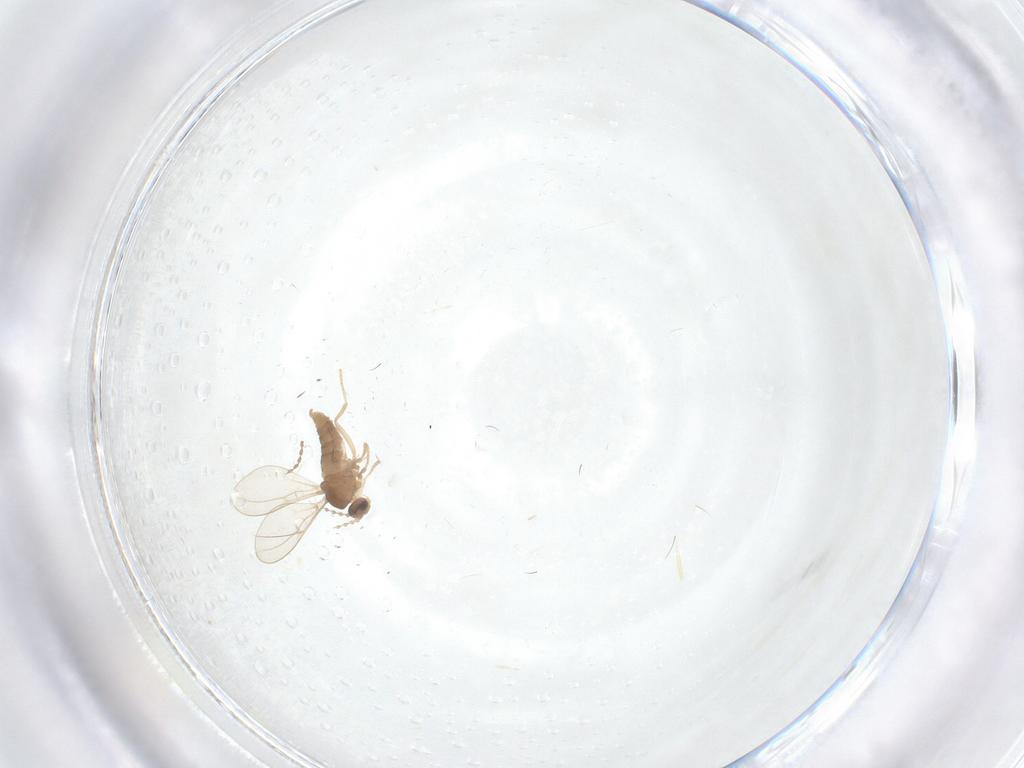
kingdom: Animalia
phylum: Arthropoda
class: Insecta
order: Diptera
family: Cecidomyiidae
